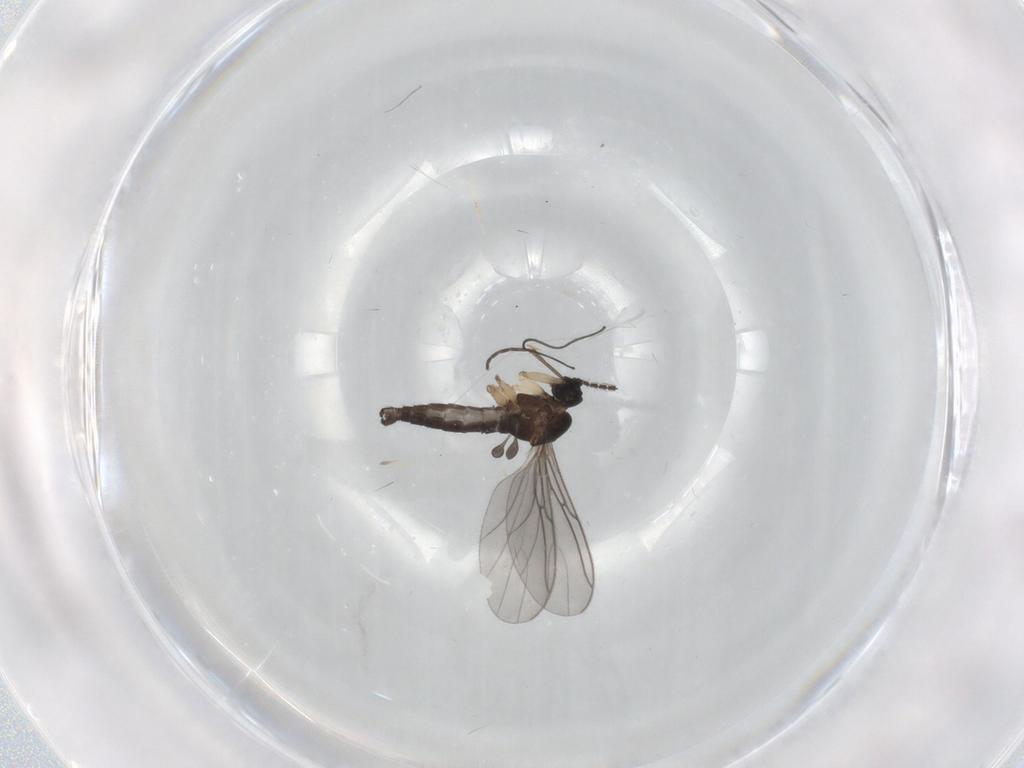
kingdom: Animalia
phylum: Arthropoda
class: Insecta
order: Diptera
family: Sciaridae
